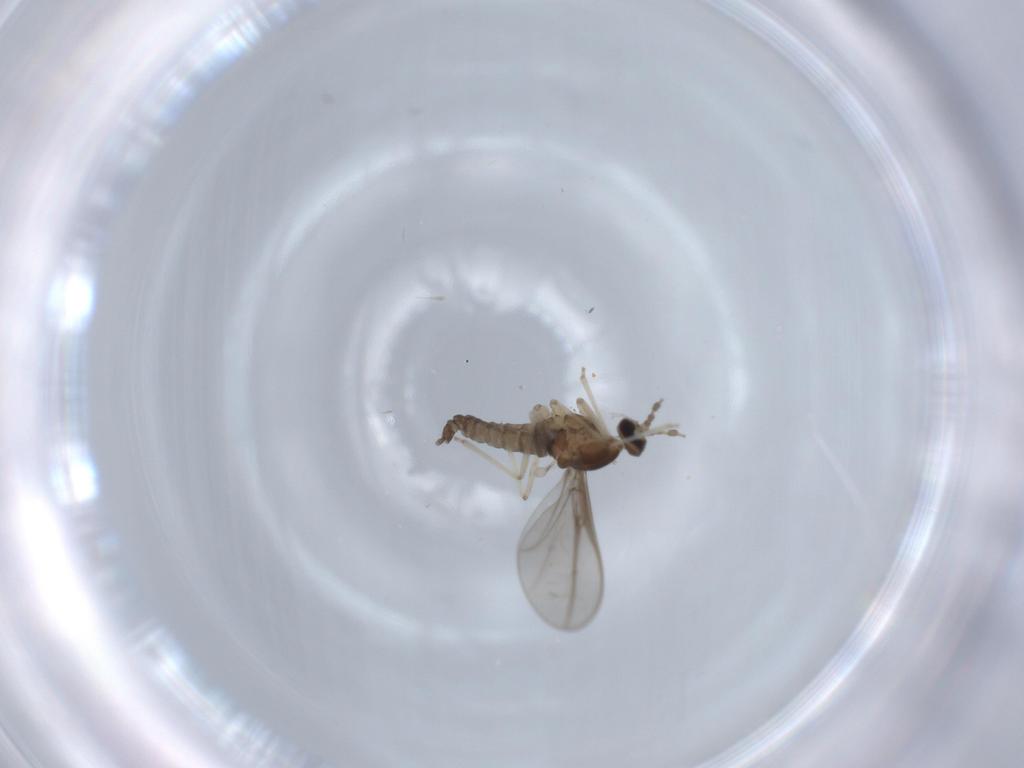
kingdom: Animalia
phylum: Arthropoda
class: Insecta
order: Diptera
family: Cecidomyiidae
